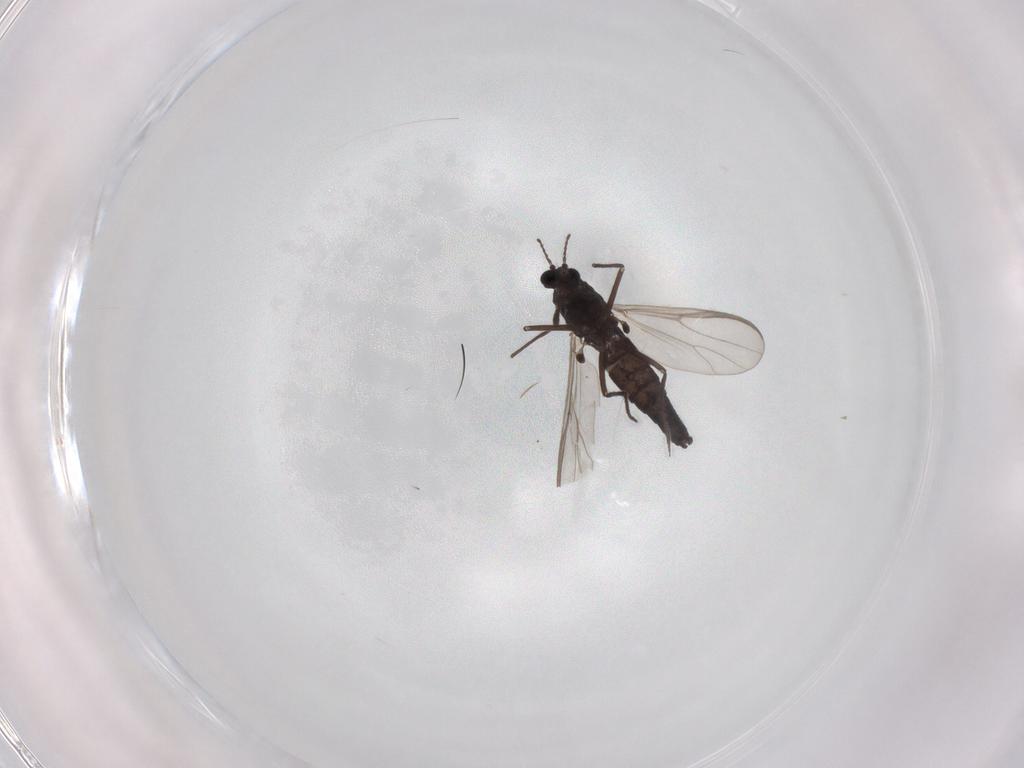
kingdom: Animalia
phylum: Arthropoda
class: Insecta
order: Diptera
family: Chironomidae
